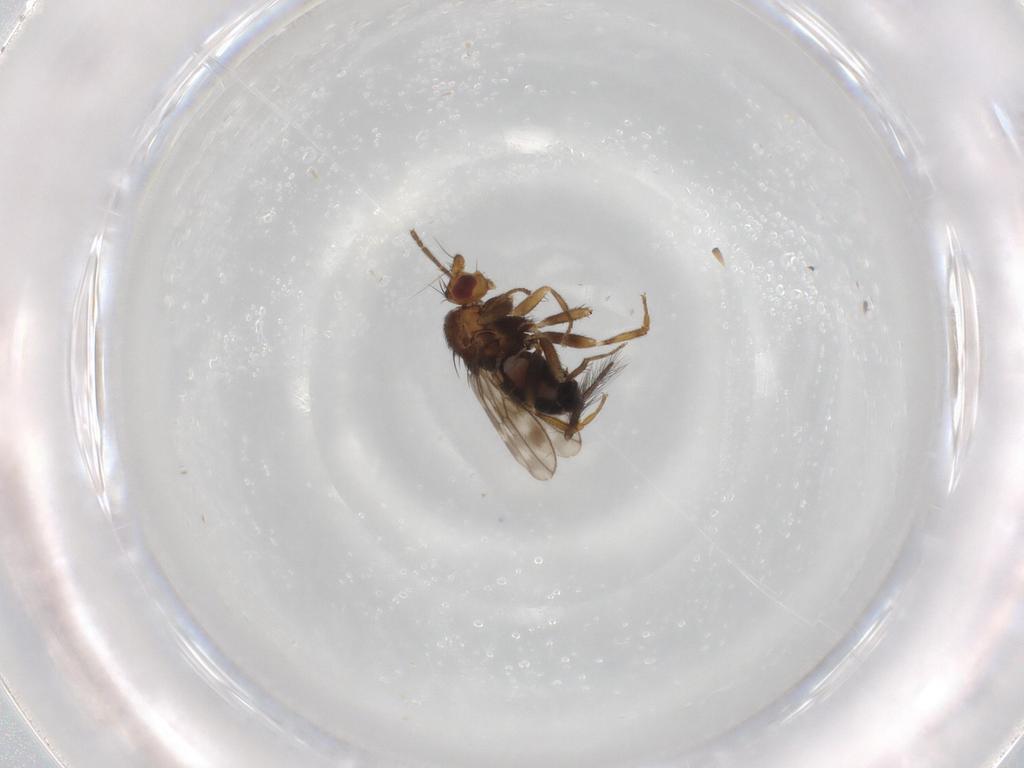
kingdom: Animalia
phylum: Arthropoda
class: Insecta
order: Diptera
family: Sphaeroceridae
